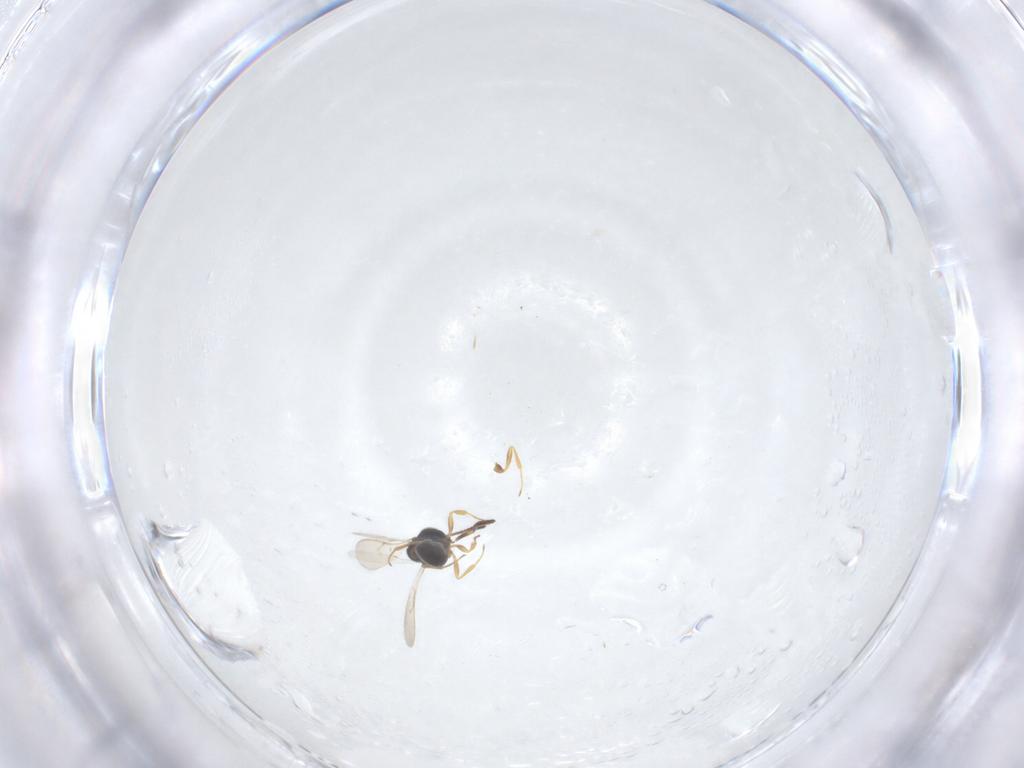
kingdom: Animalia
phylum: Arthropoda
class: Insecta
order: Hymenoptera
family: Scelionidae
